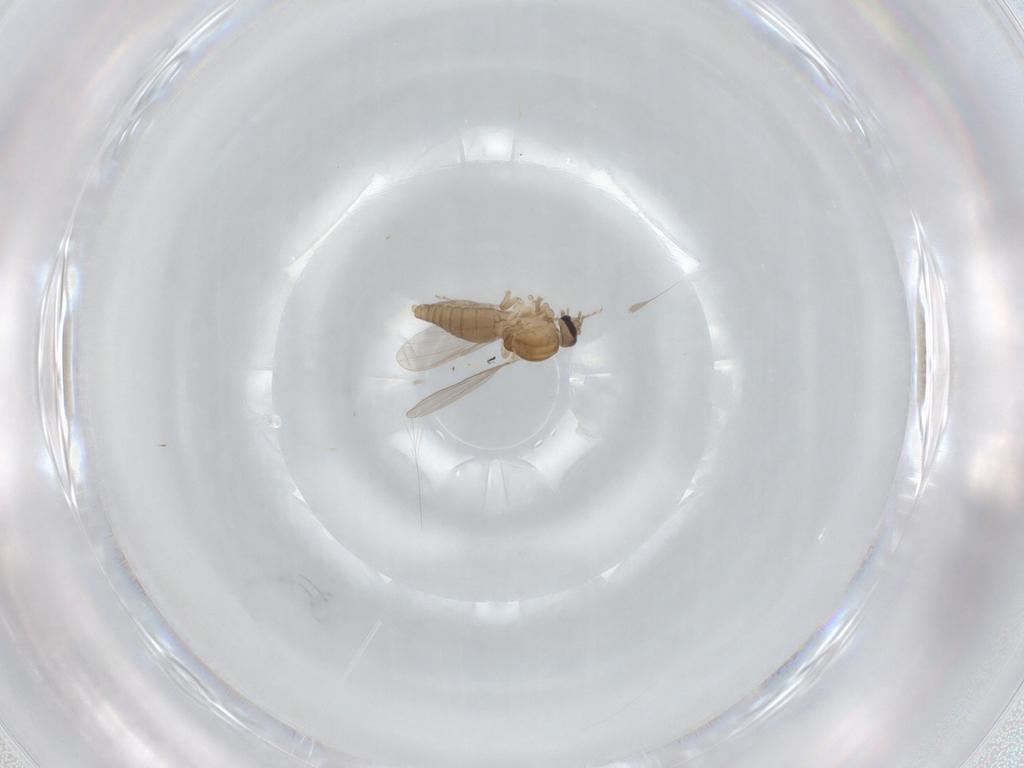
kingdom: Animalia
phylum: Arthropoda
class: Insecta
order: Diptera
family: Ceratopogonidae
